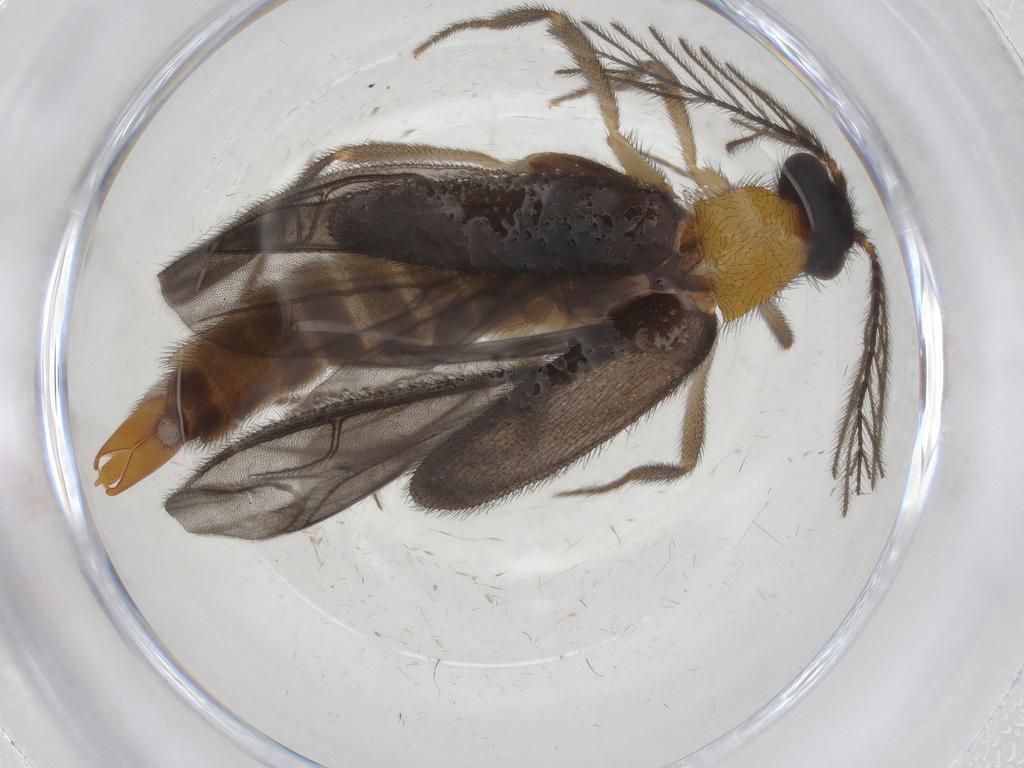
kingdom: Animalia
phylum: Arthropoda
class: Insecta
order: Coleoptera
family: Phengodidae
